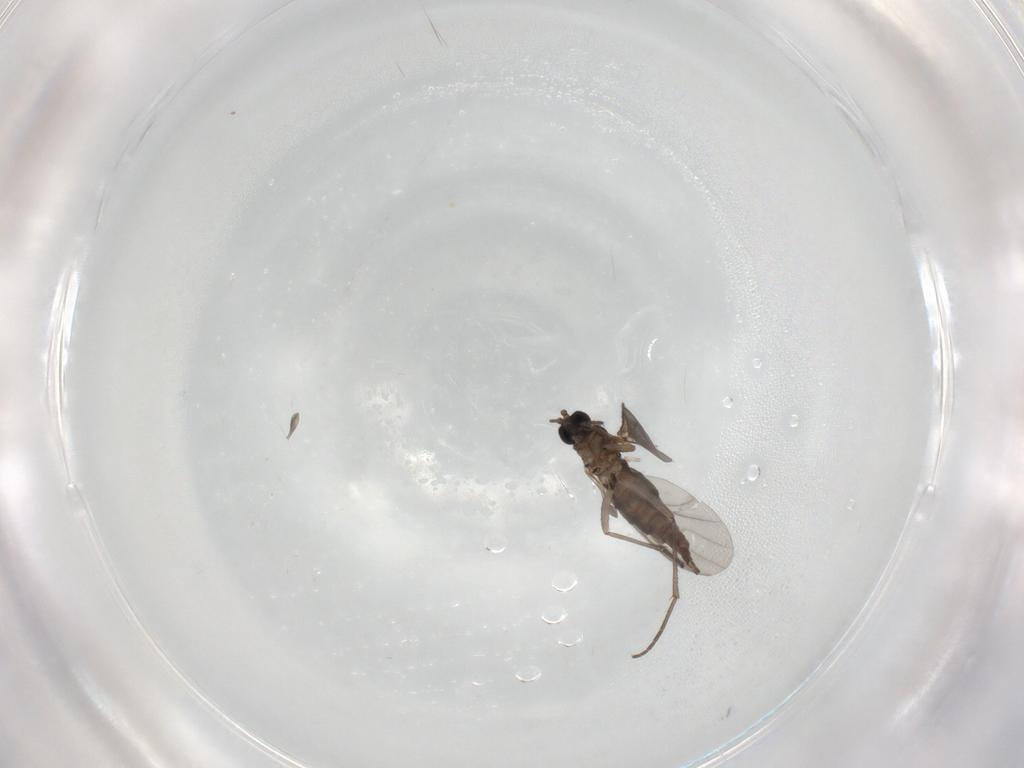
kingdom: Animalia
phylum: Arthropoda
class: Insecta
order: Diptera
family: Sciaridae
